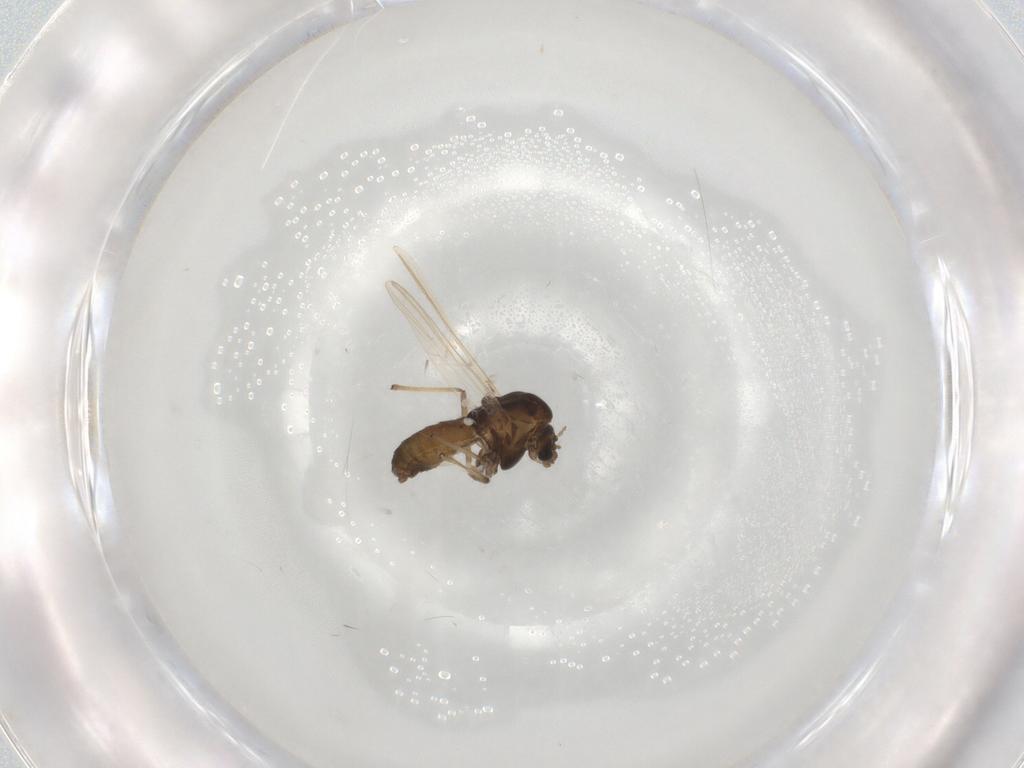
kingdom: Animalia
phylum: Arthropoda
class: Insecta
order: Diptera
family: Chironomidae
